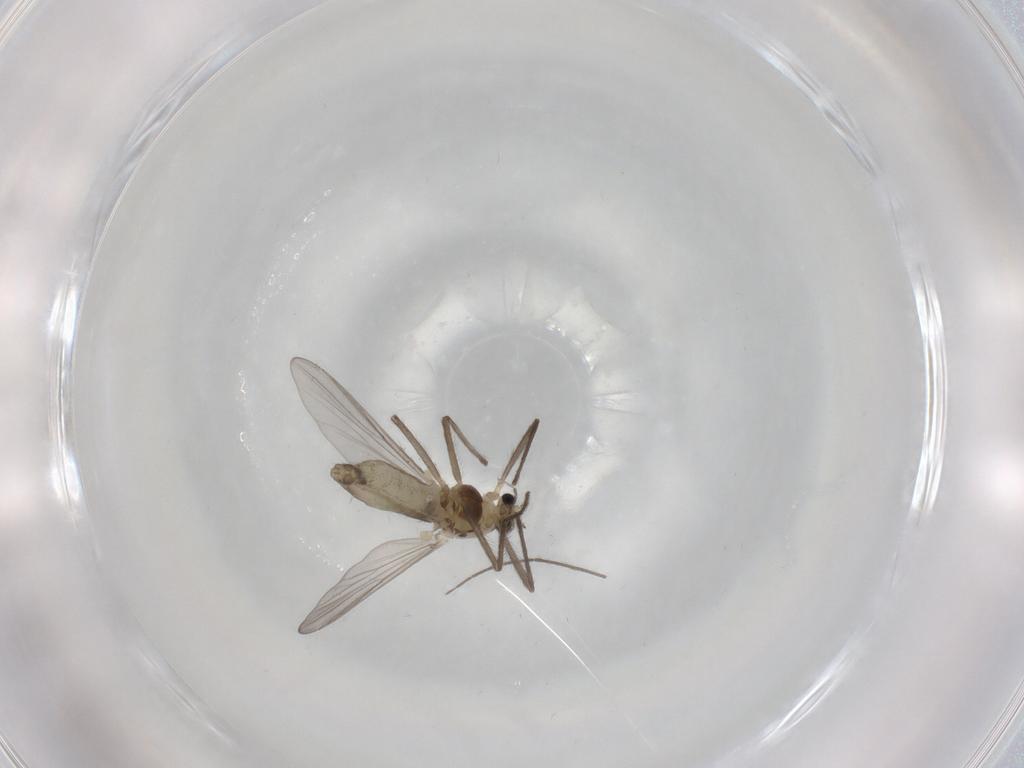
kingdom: Animalia
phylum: Arthropoda
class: Insecta
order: Diptera
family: Chironomidae
